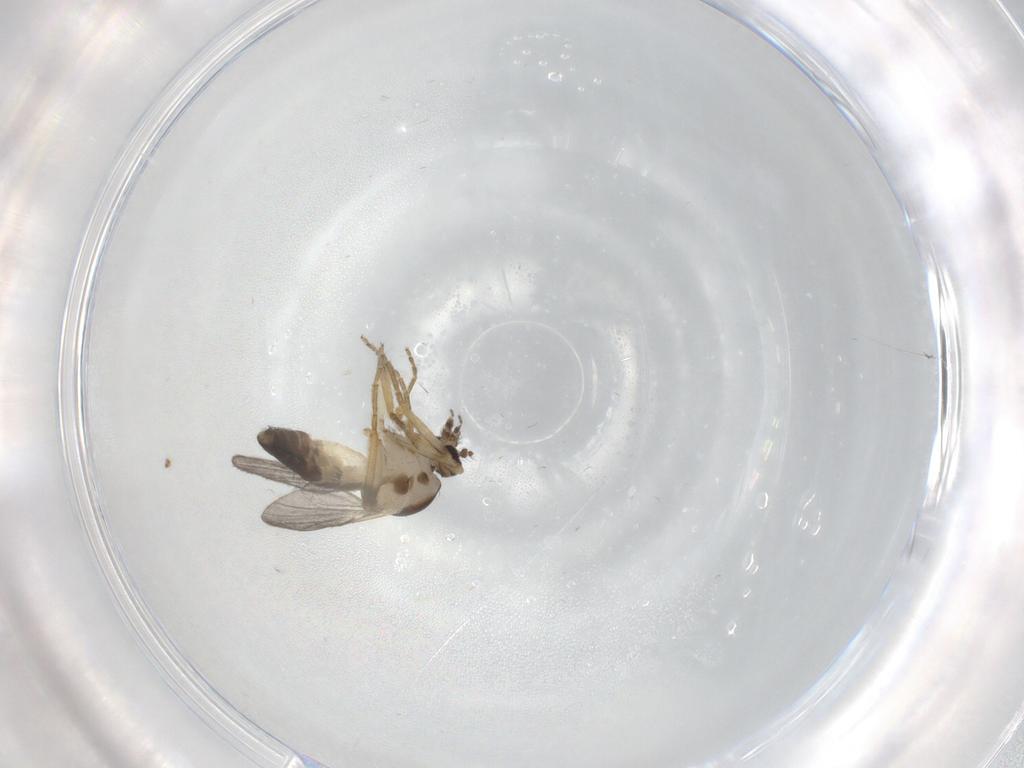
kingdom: Animalia
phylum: Arthropoda
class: Insecta
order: Diptera
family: Ceratopogonidae
